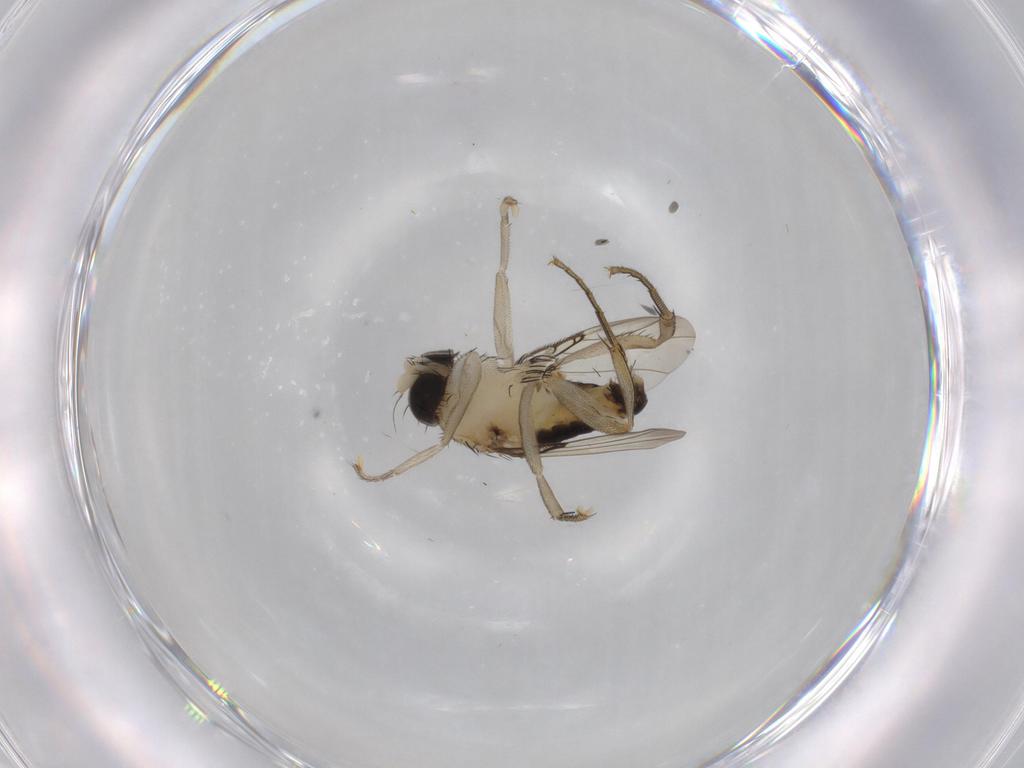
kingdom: Animalia
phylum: Arthropoda
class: Insecta
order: Diptera
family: Phoridae
